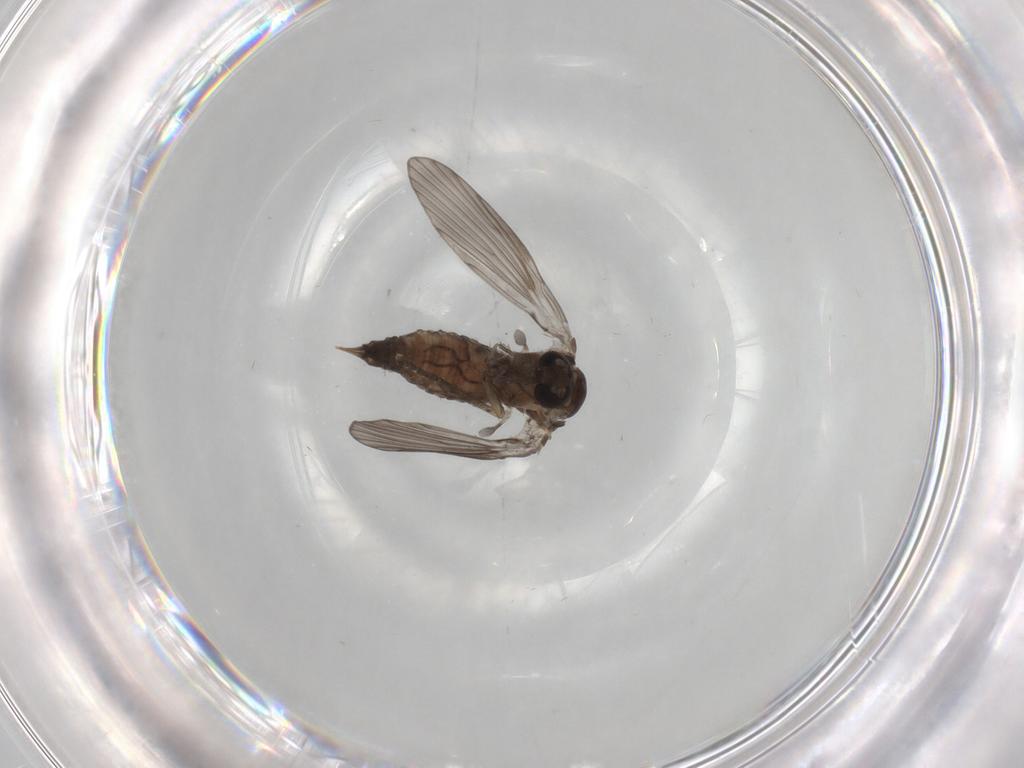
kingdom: Animalia
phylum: Arthropoda
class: Insecta
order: Diptera
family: Psychodidae
